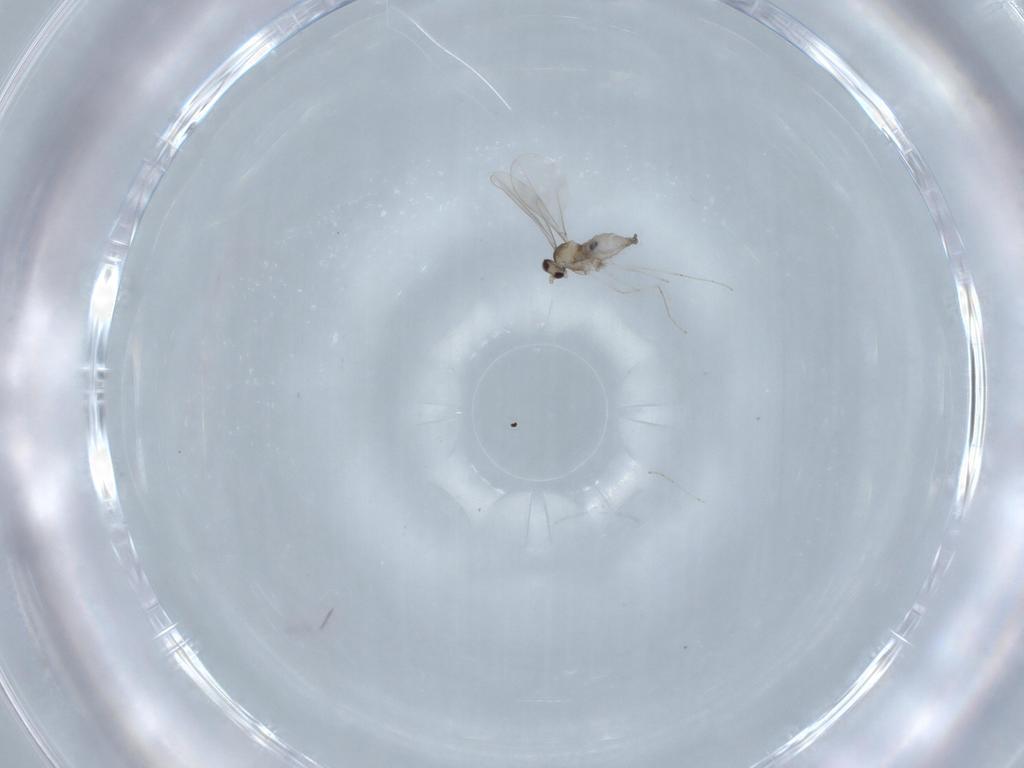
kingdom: Animalia
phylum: Arthropoda
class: Insecta
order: Diptera
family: Cecidomyiidae
